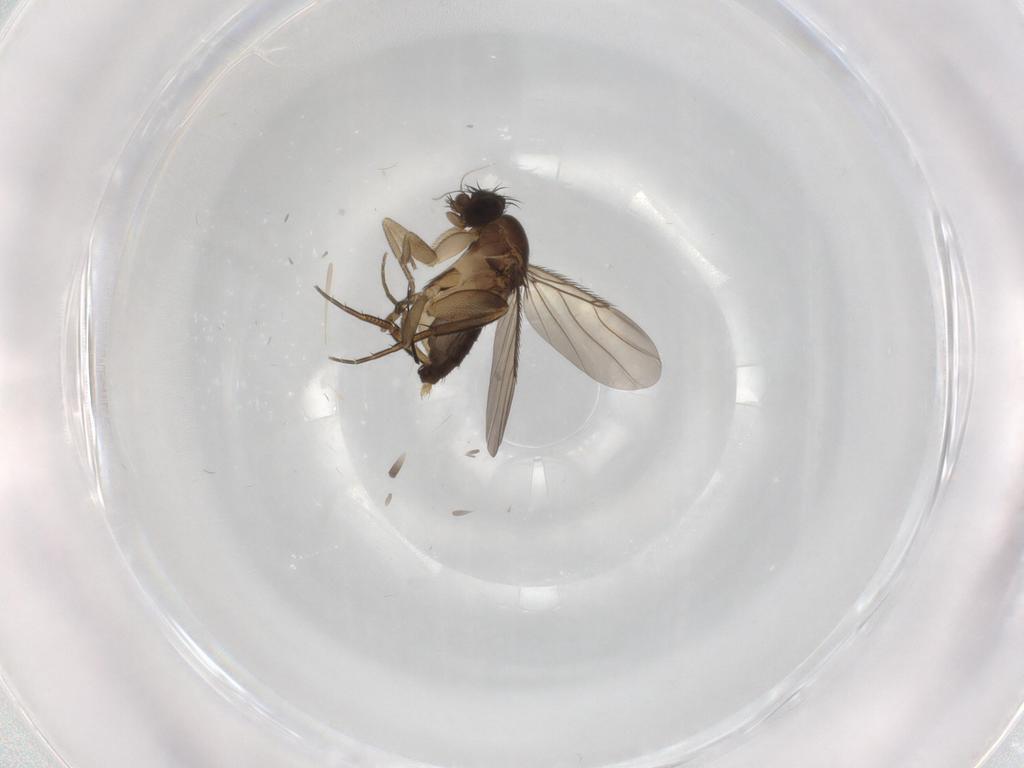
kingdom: Animalia
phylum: Arthropoda
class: Insecta
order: Diptera
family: Phoridae
